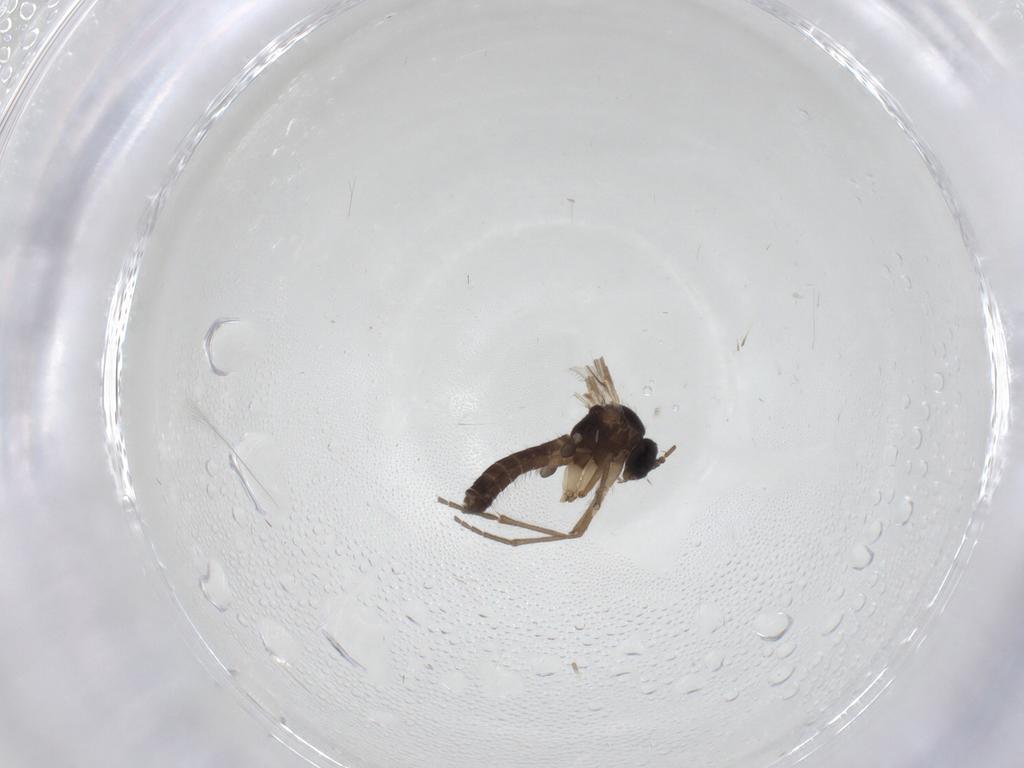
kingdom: Animalia
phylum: Arthropoda
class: Insecta
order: Diptera
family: Mycetophilidae
